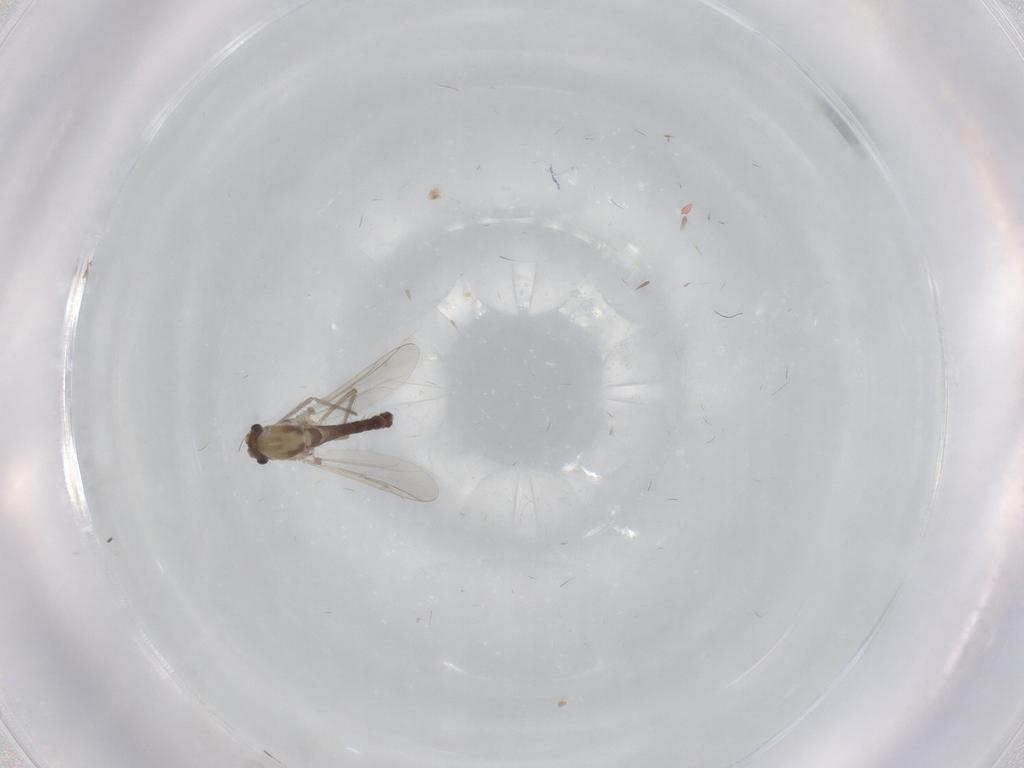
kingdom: Animalia
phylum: Arthropoda
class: Insecta
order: Diptera
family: Chironomidae
